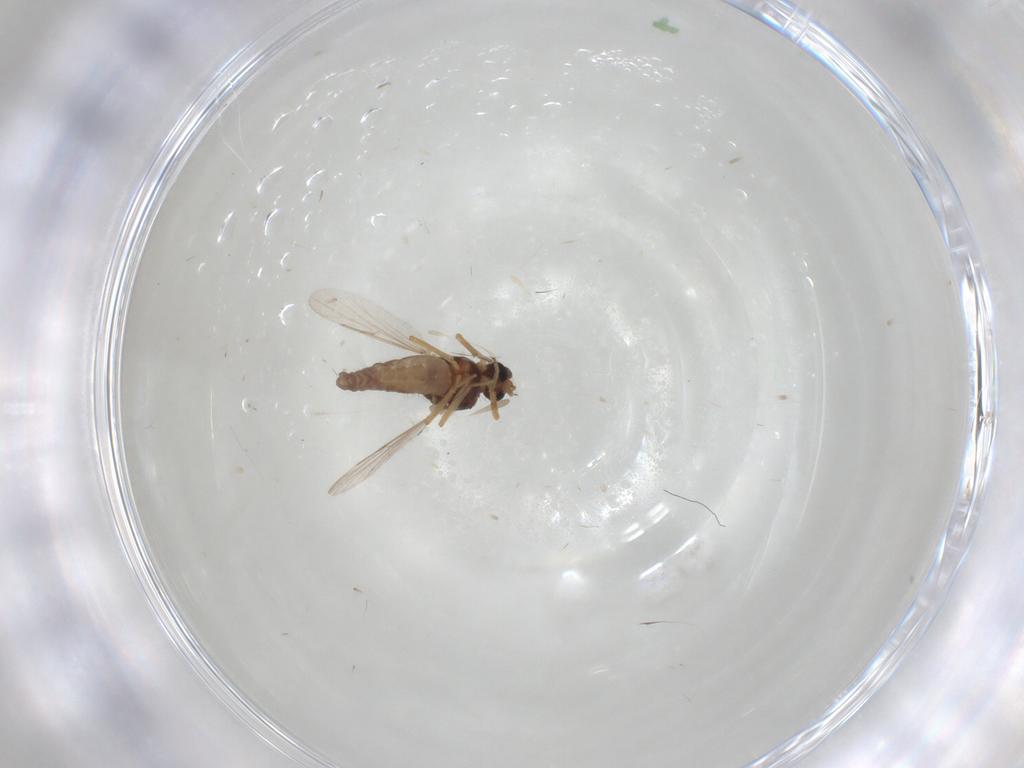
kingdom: Animalia
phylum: Arthropoda
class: Insecta
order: Diptera
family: Ceratopogonidae
